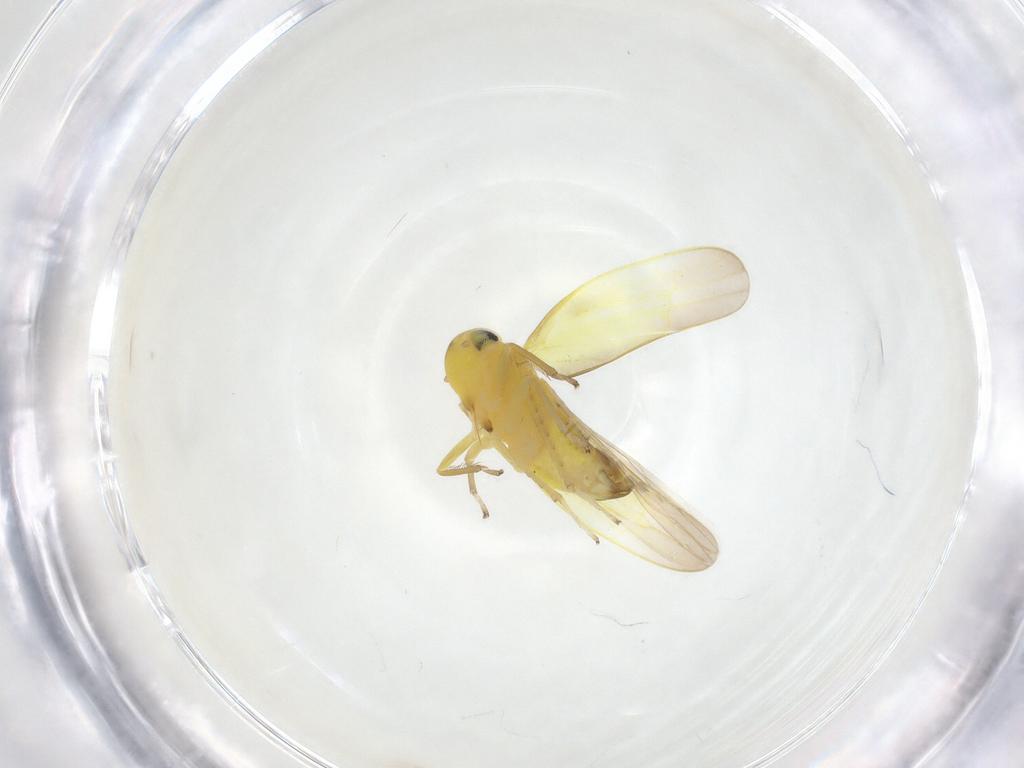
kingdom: Animalia
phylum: Arthropoda
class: Insecta
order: Hemiptera
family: Cicadellidae
